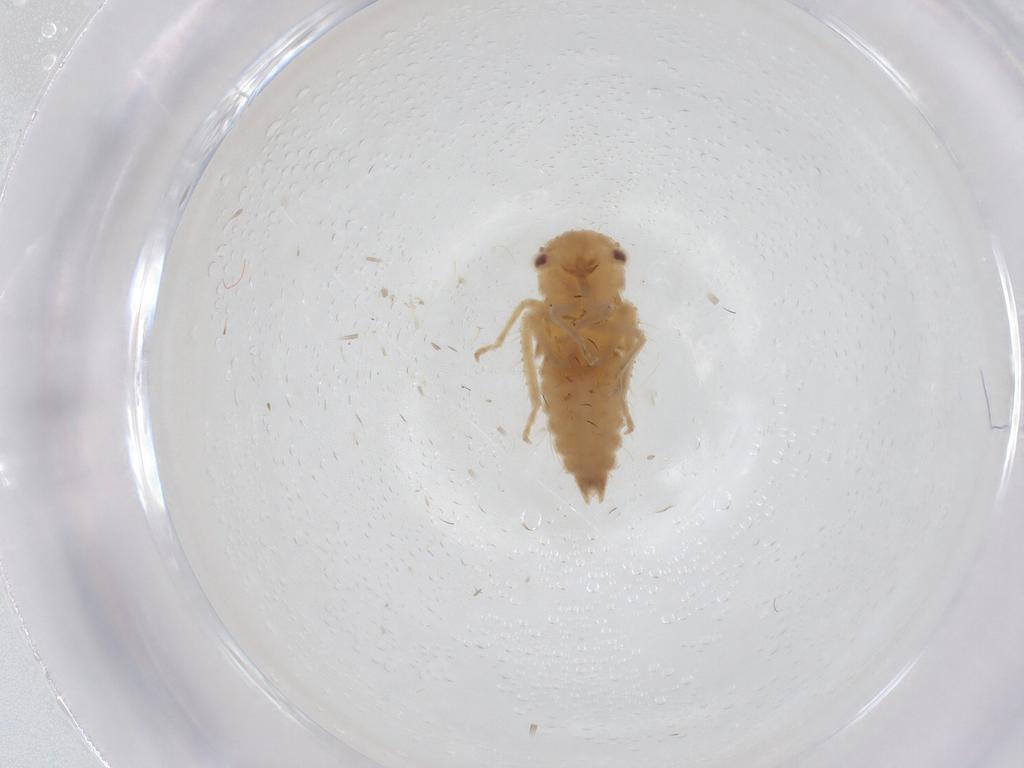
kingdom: Animalia
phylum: Arthropoda
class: Insecta
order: Hemiptera
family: Cicadellidae
